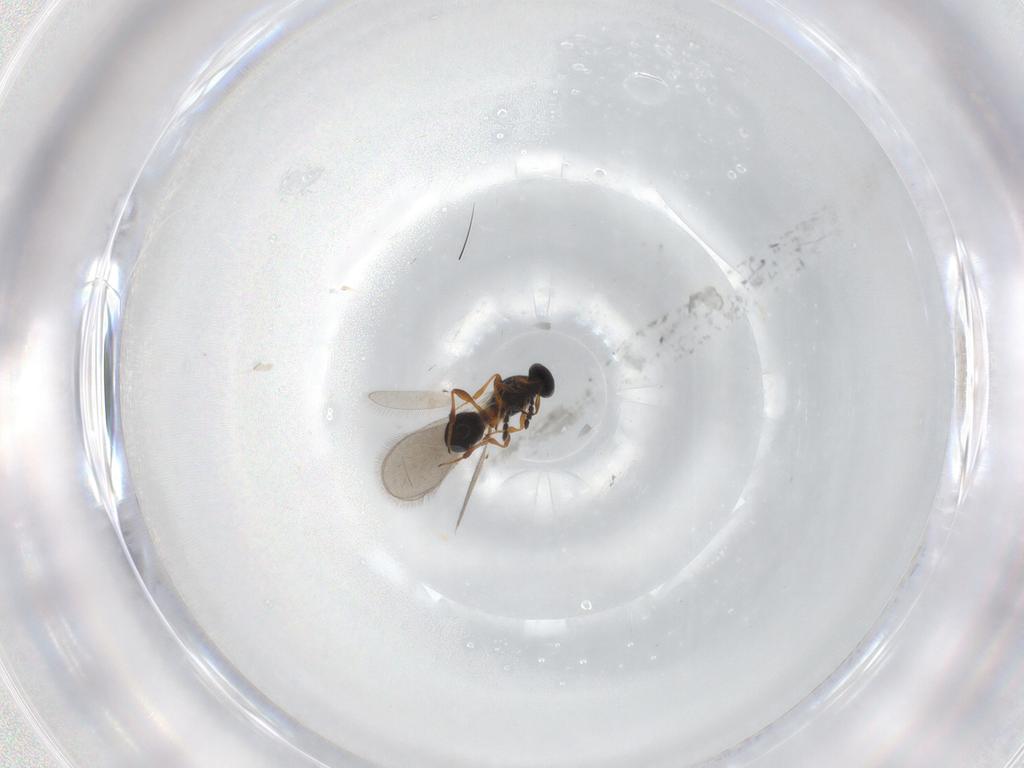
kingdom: Animalia
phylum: Arthropoda
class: Insecta
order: Hymenoptera
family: Platygastridae
